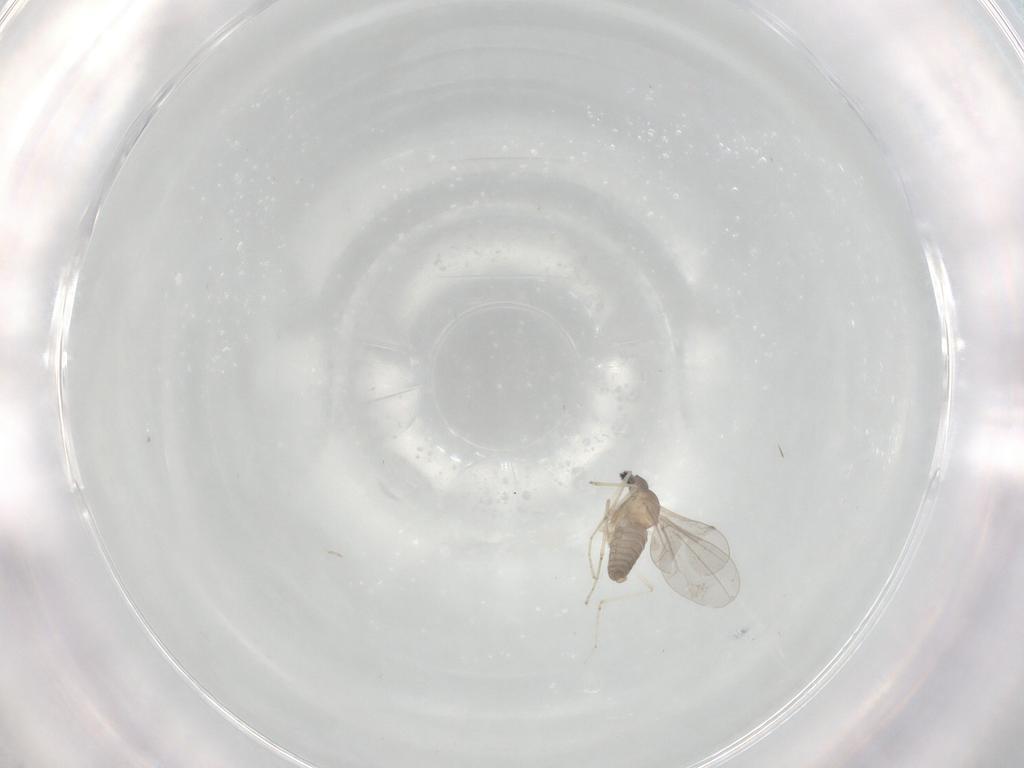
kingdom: Animalia
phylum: Arthropoda
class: Insecta
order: Diptera
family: Cecidomyiidae
